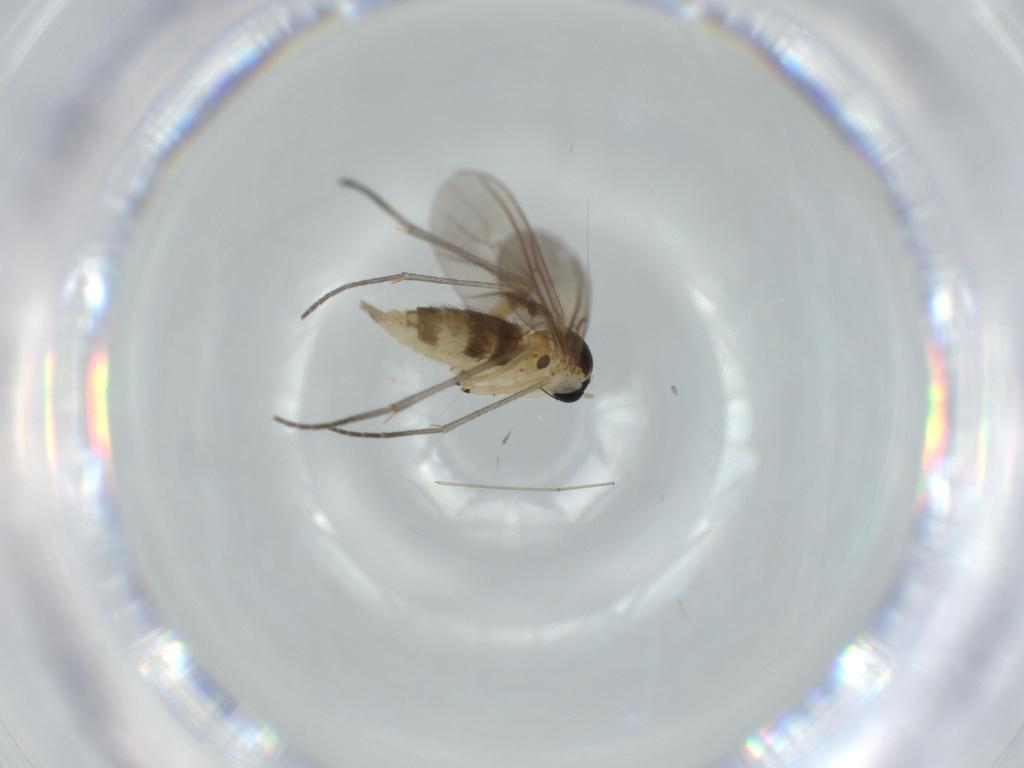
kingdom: Animalia
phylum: Arthropoda
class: Insecta
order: Diptera
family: Sciaridae
